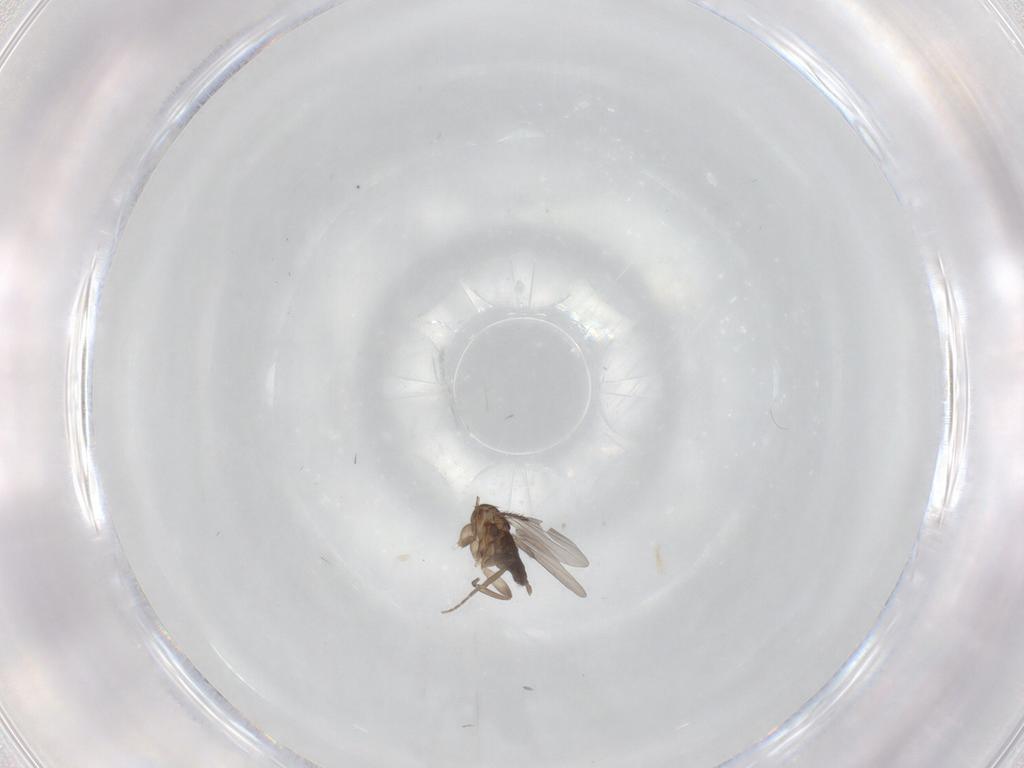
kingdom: Animalia
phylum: Arthropoda
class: Insecta
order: Diptera
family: Phoridae
